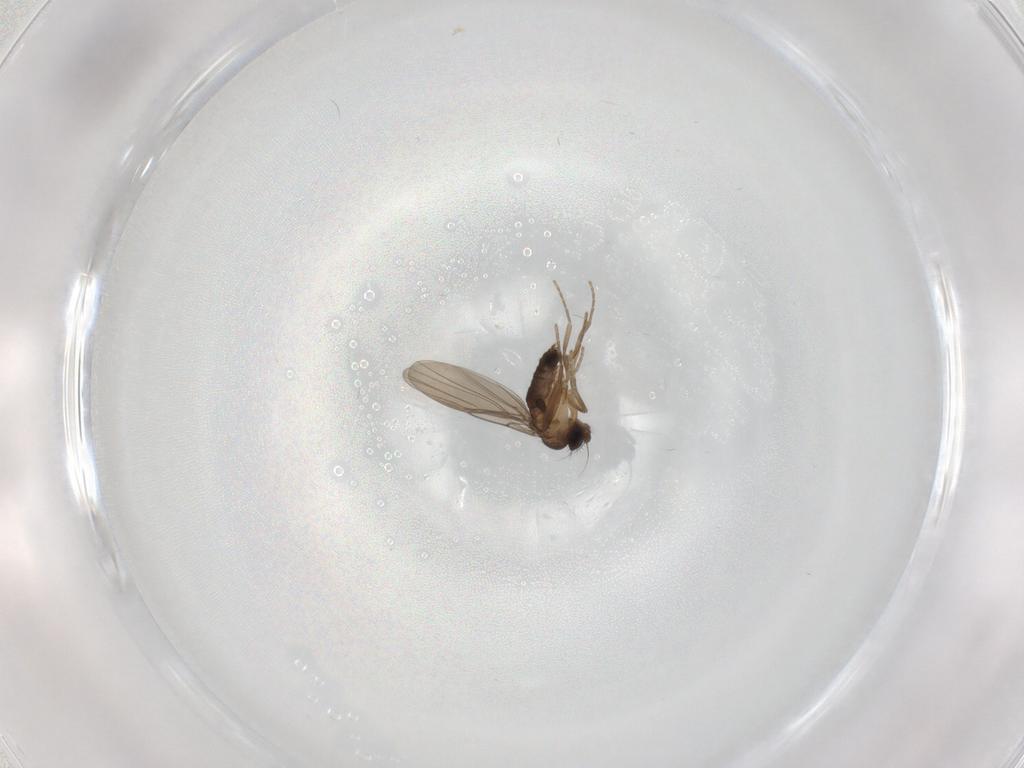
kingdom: Animalia
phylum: Arthropoda
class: Insecta
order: Diptera
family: Phoridae
